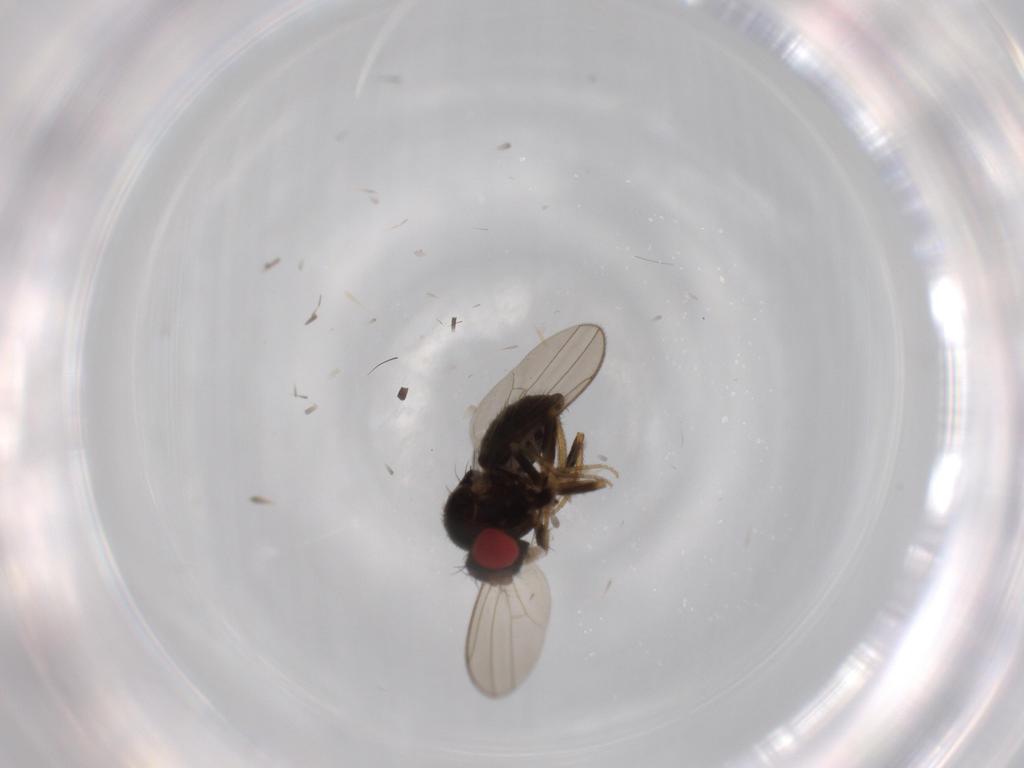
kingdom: Animalia
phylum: Arthropoda
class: Insecta
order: Diptera
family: Drosophilidae
